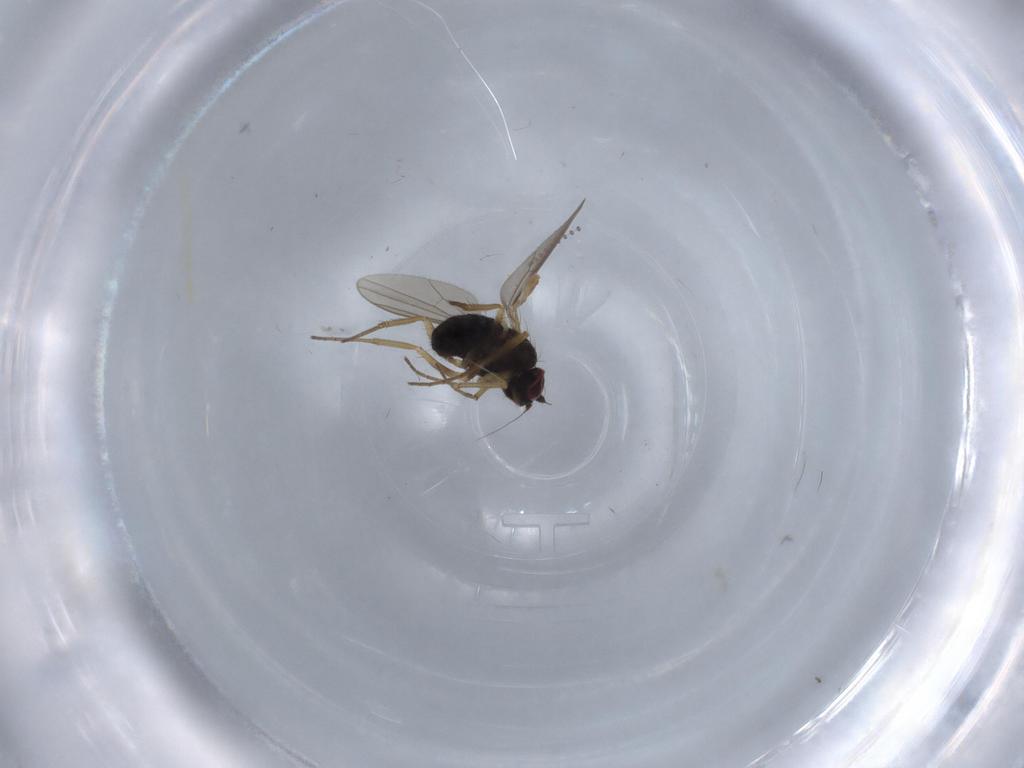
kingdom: Animalia
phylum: Arthropoda
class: Insecta
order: Diptera
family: Dolichopodidae
